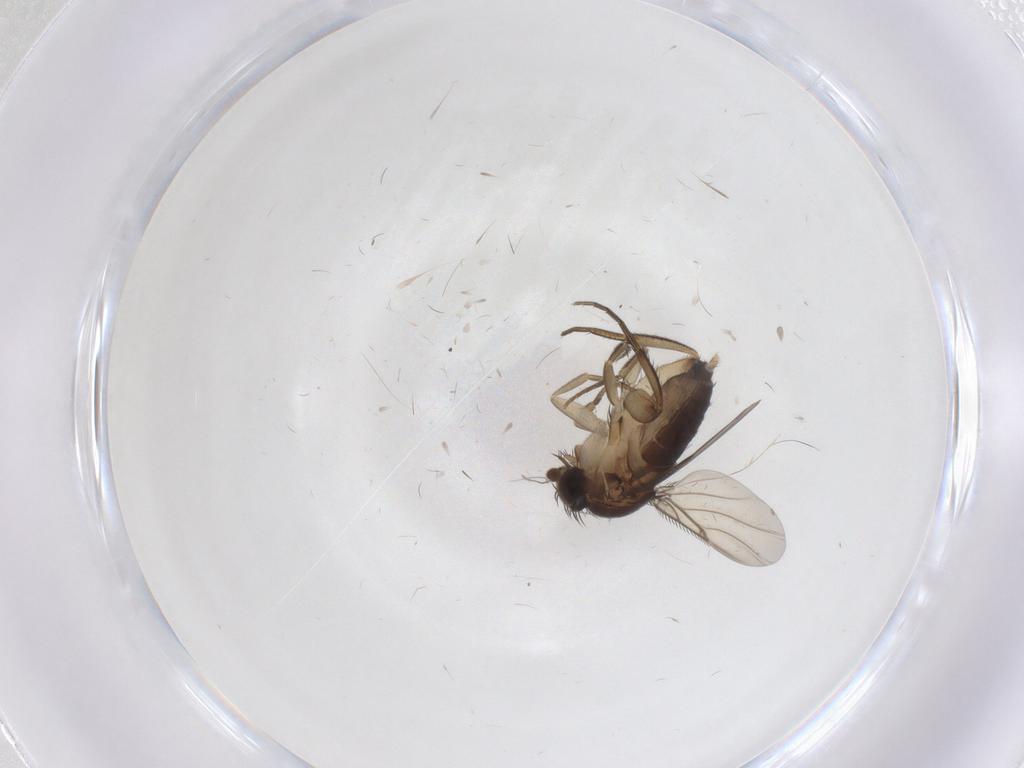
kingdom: Animalia
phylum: Arthropoda
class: Insecta
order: Diptera
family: Phoridae
